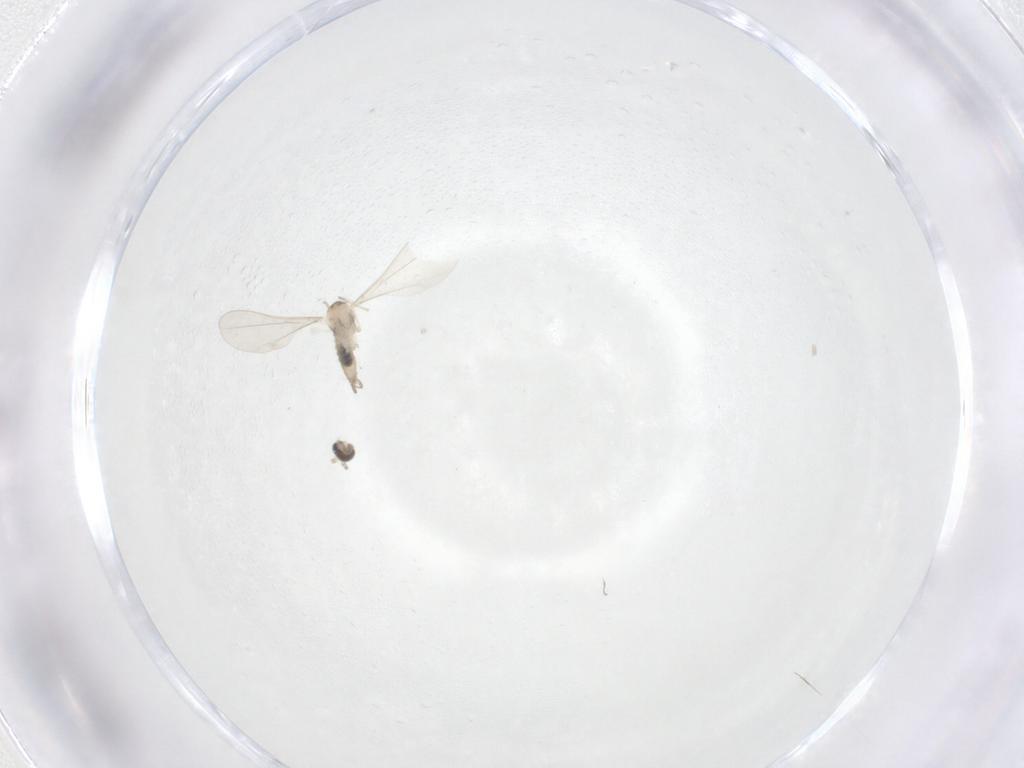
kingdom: Animalia
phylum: Arthropoda
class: Insecta
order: Diptera
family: Cecidomyiidae
